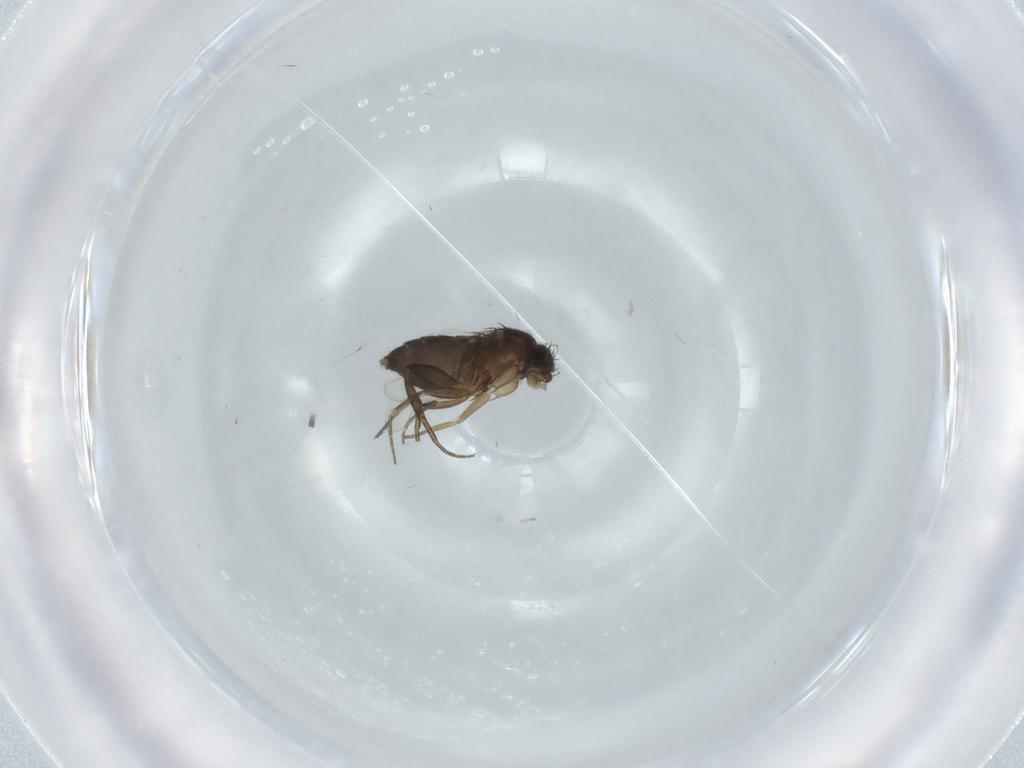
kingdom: Animalia
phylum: Arthropoda
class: Insecta
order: Diptera
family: Phoridae
